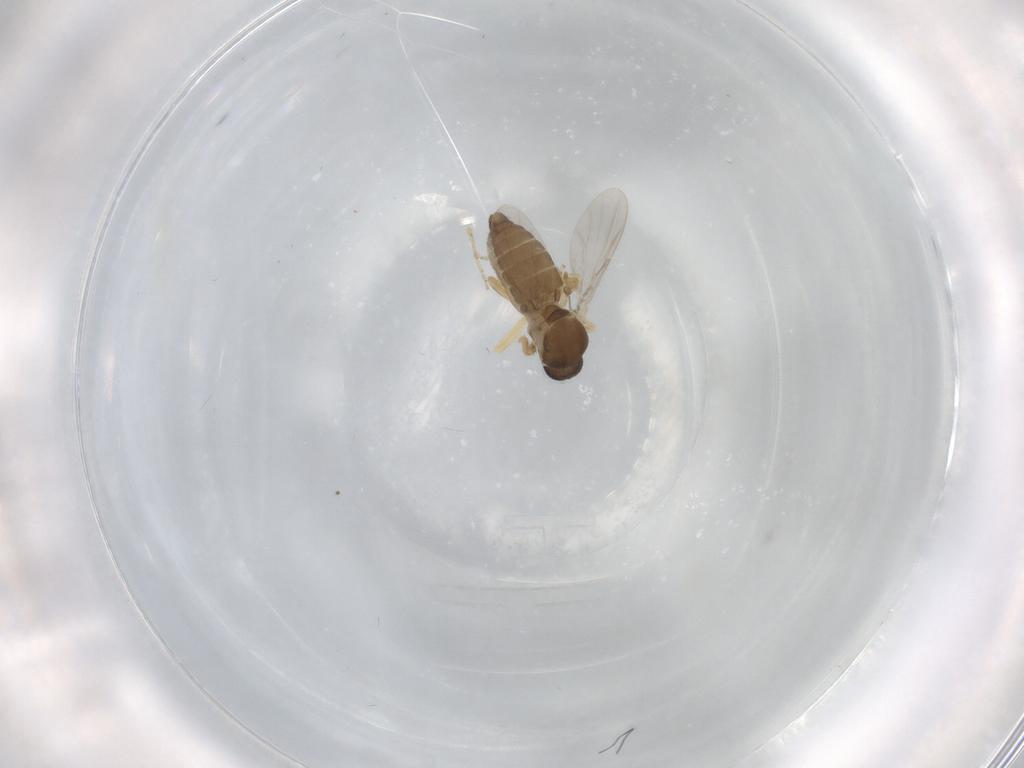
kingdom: Animalia
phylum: Arthropoda
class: Insecta
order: Diptera
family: Ceratopogonidae
